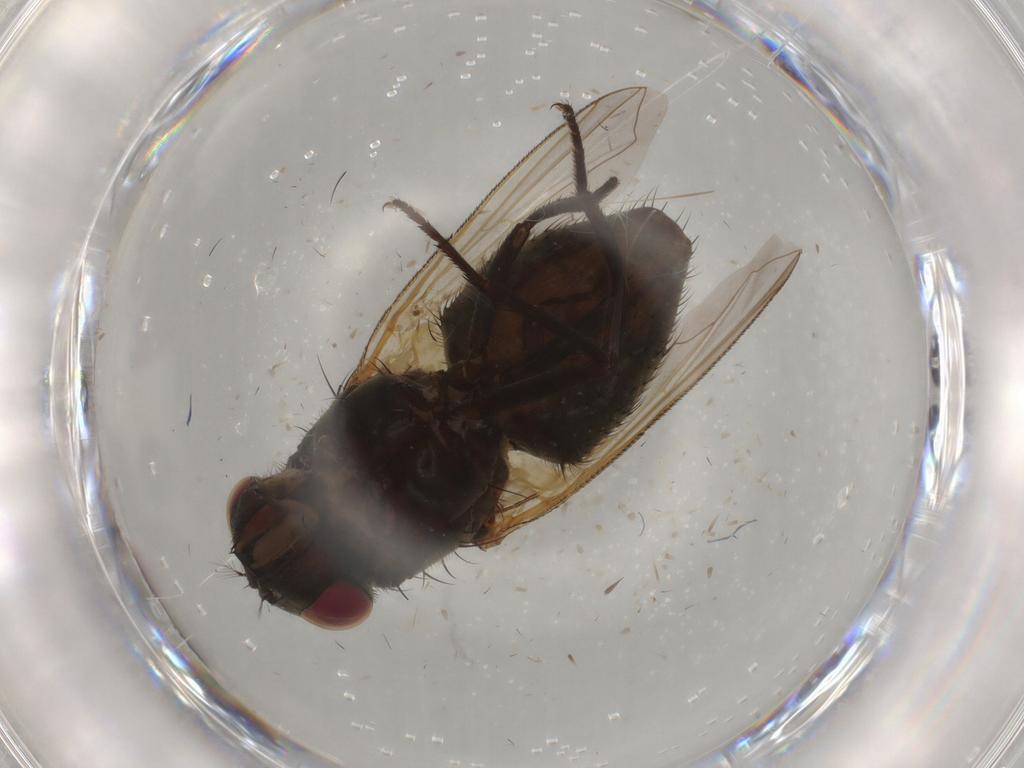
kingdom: Animalia
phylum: Arthropoda
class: Insecta
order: Diptera
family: Muscidae
